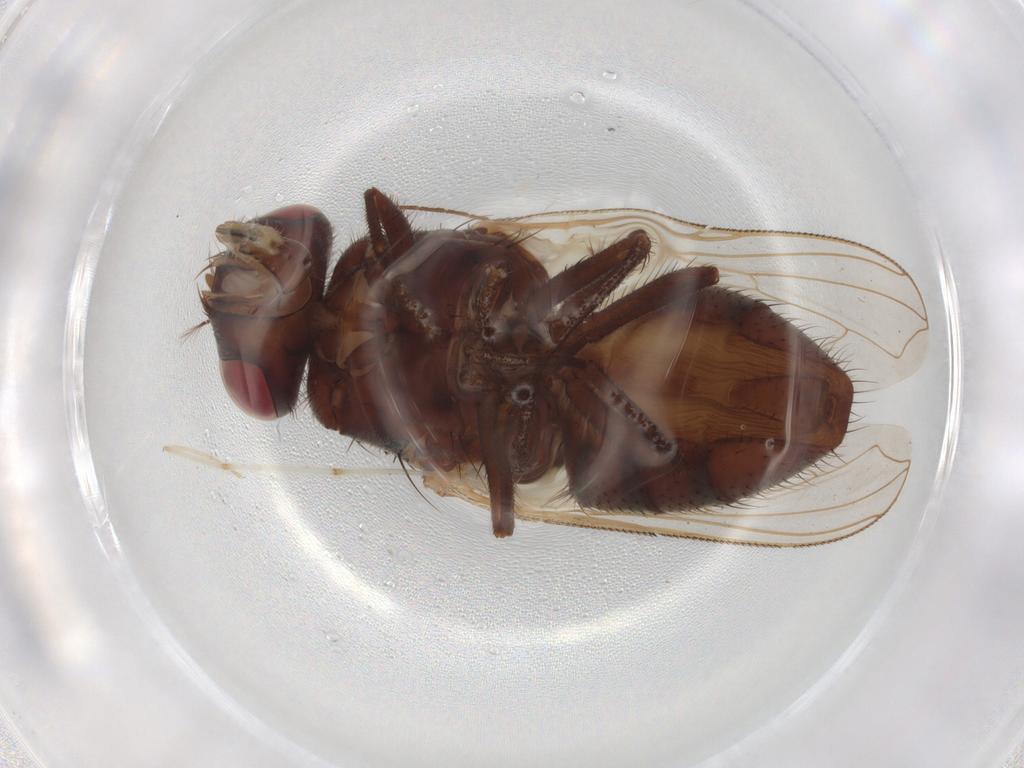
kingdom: Animalia
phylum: Arthropoda
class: Insecta
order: Diptera
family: Cecidomyiidae
